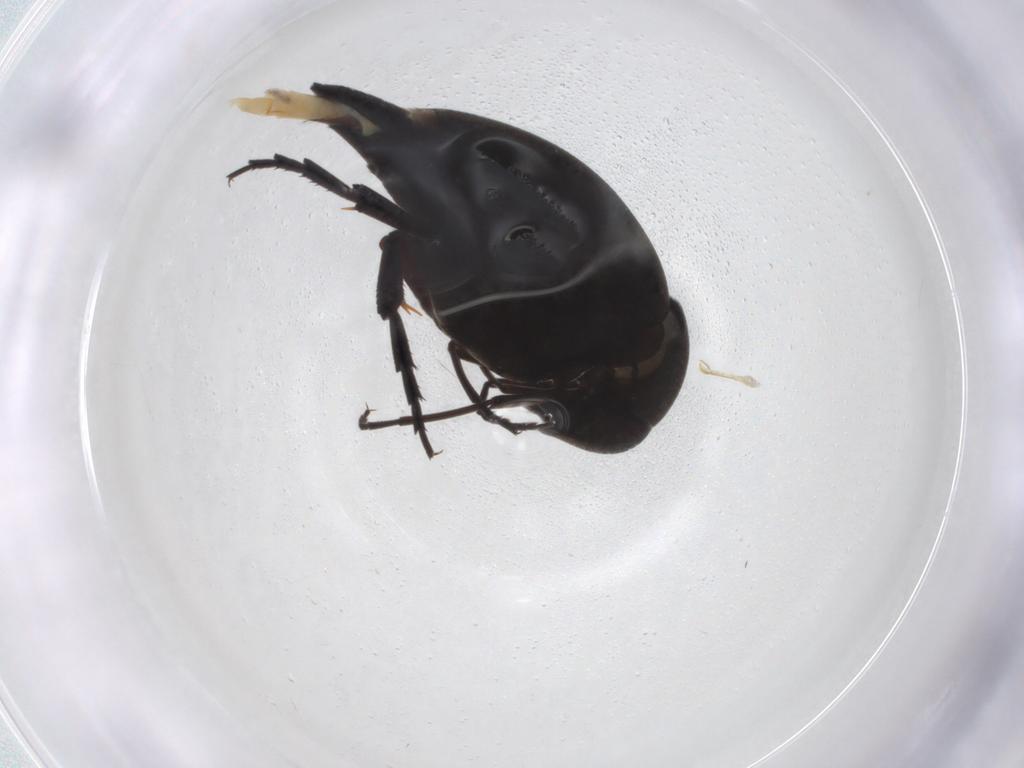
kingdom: Animalia
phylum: Arthropoda
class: Insecta
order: Coleoptera
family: Mordellidae
